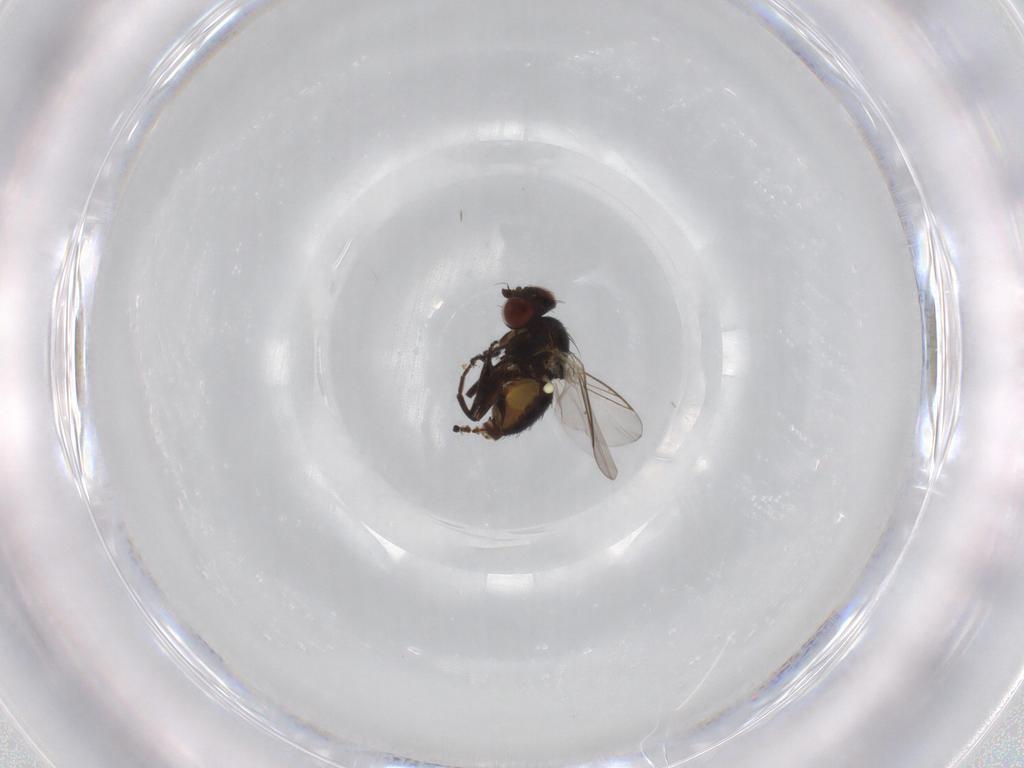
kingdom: Animalia
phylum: Arthropoda
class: Insecta
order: Diptera
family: Agromyzidae
